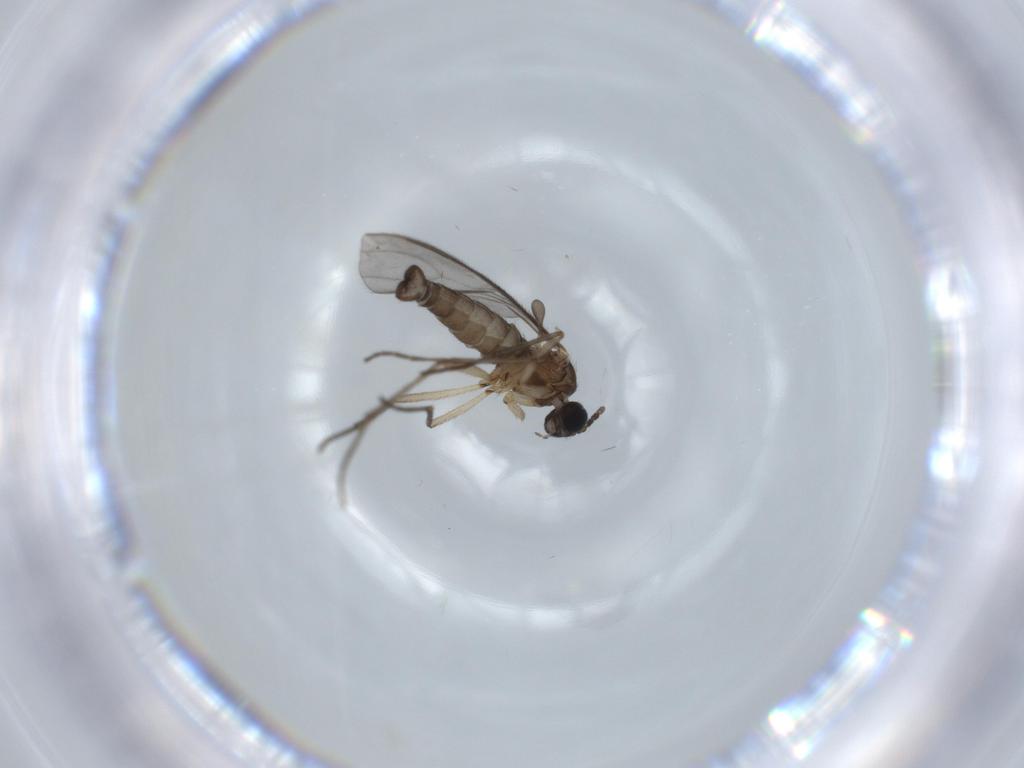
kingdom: Animalia
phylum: Arthropoda
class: Insecta
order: Diptera
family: Sciaridae
